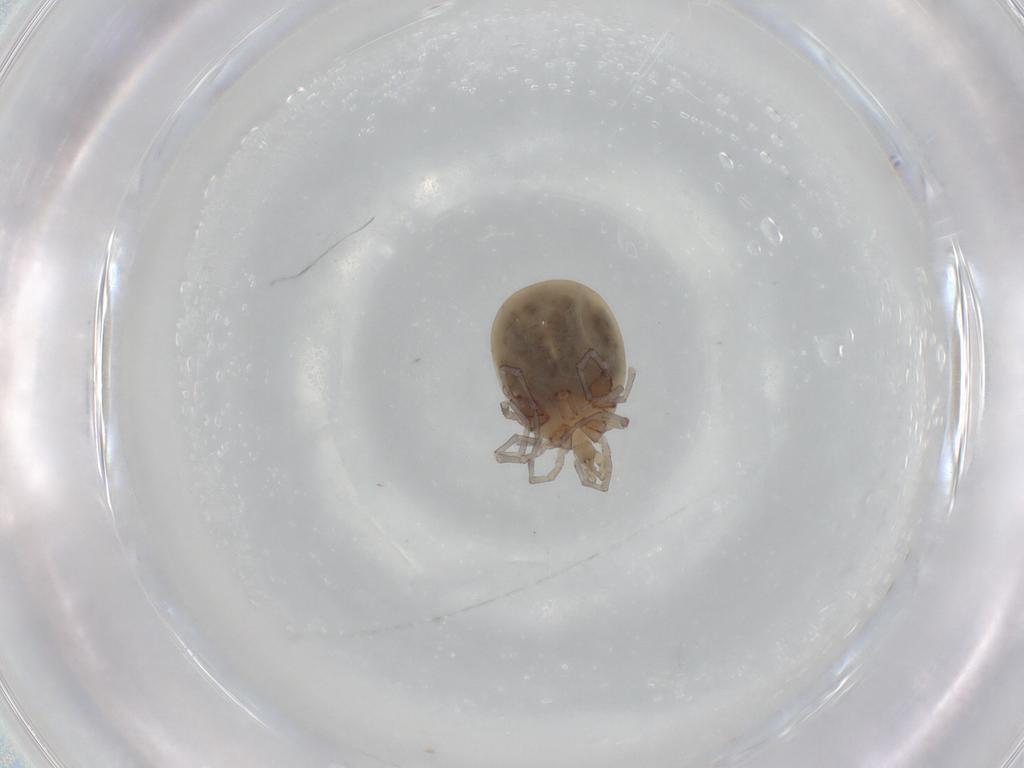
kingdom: Animalia
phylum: Arthropoda
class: Arachnida
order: Trombidiformes
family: Lebertiidae
